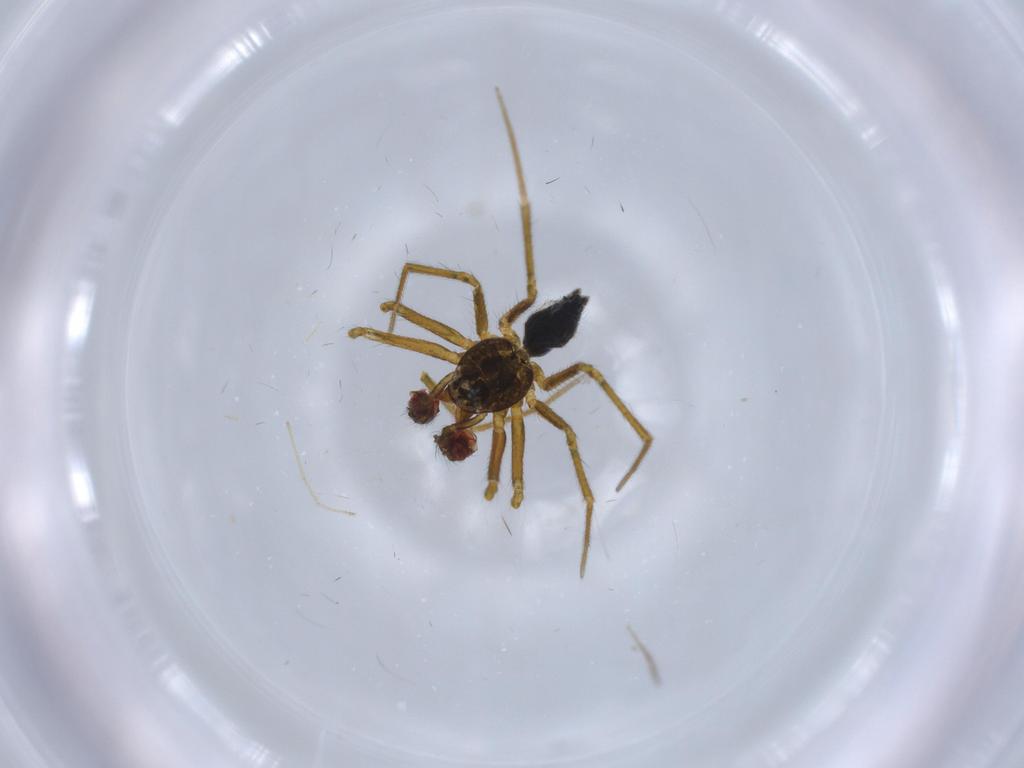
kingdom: Animalia
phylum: Arthropoda
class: Arachnida
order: Araneae
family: Linyphiidae
